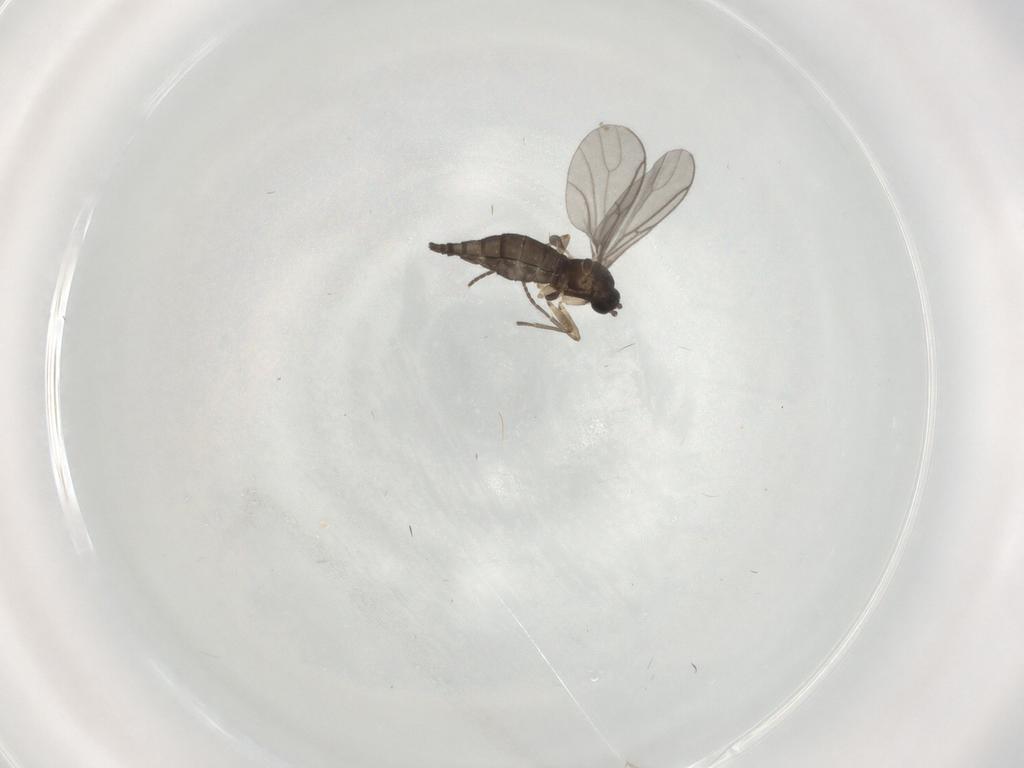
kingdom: Animalia
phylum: Arthropoda
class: Insecta
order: Diptera
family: Sciaridae
